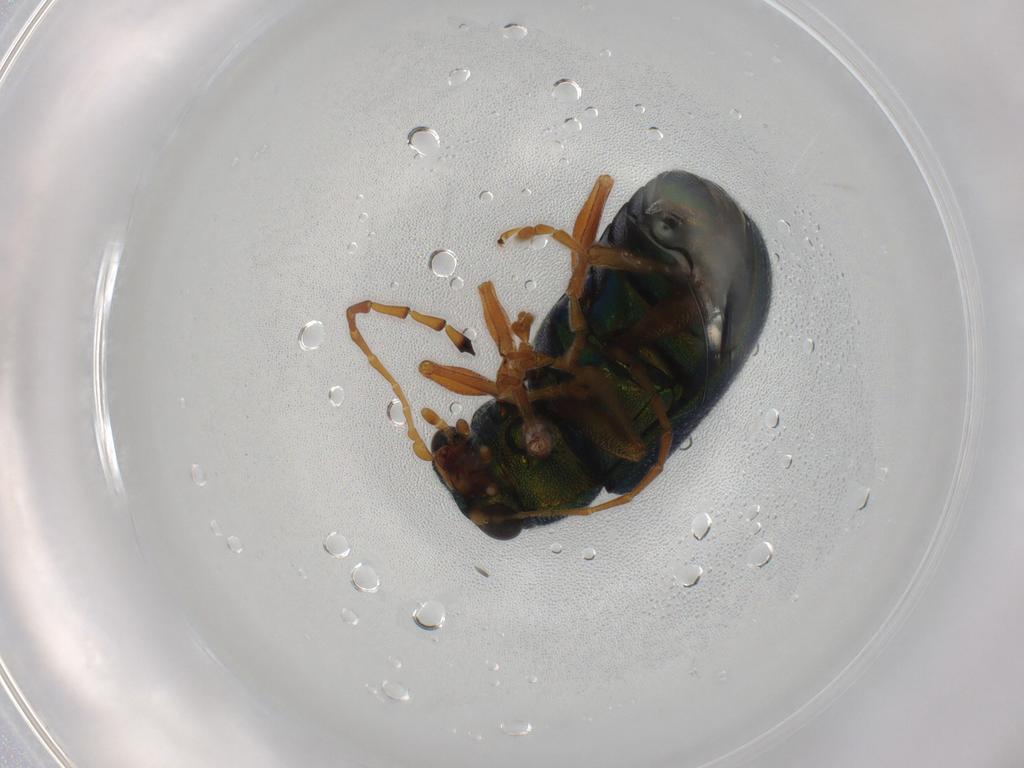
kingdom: Animalia
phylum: Arthropoda
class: Insecta
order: Coleoptera
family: Chrysomelidae
